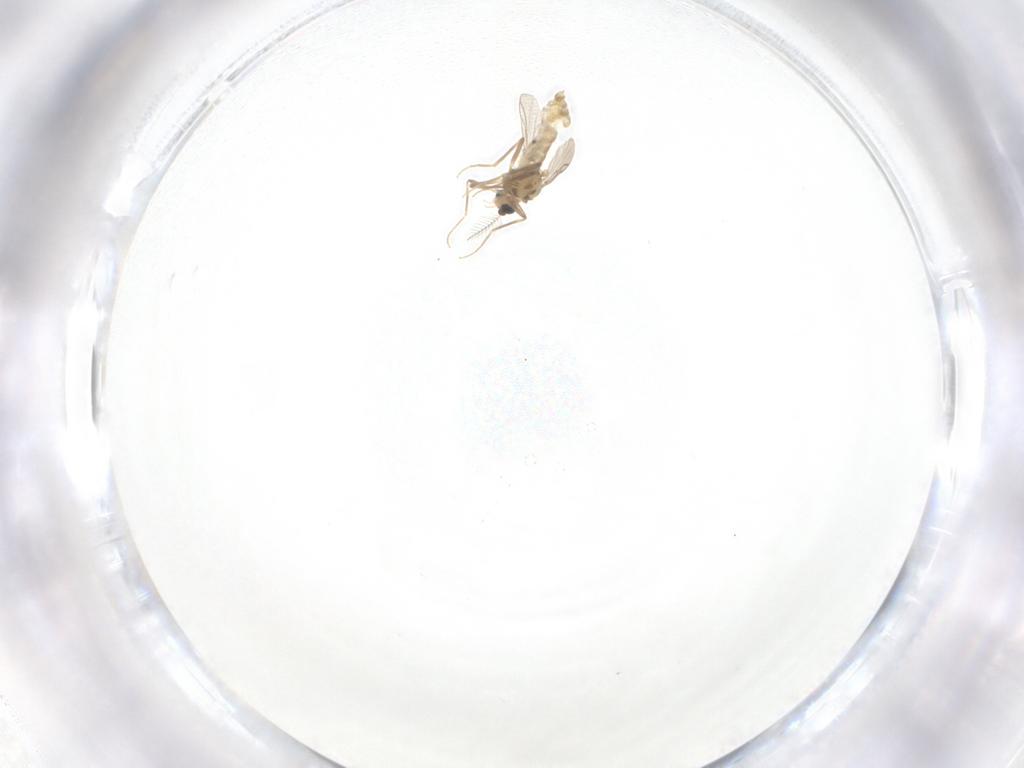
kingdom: Animalia
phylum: Arthropoda
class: Insecta
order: Diptera
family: Chironomidae
